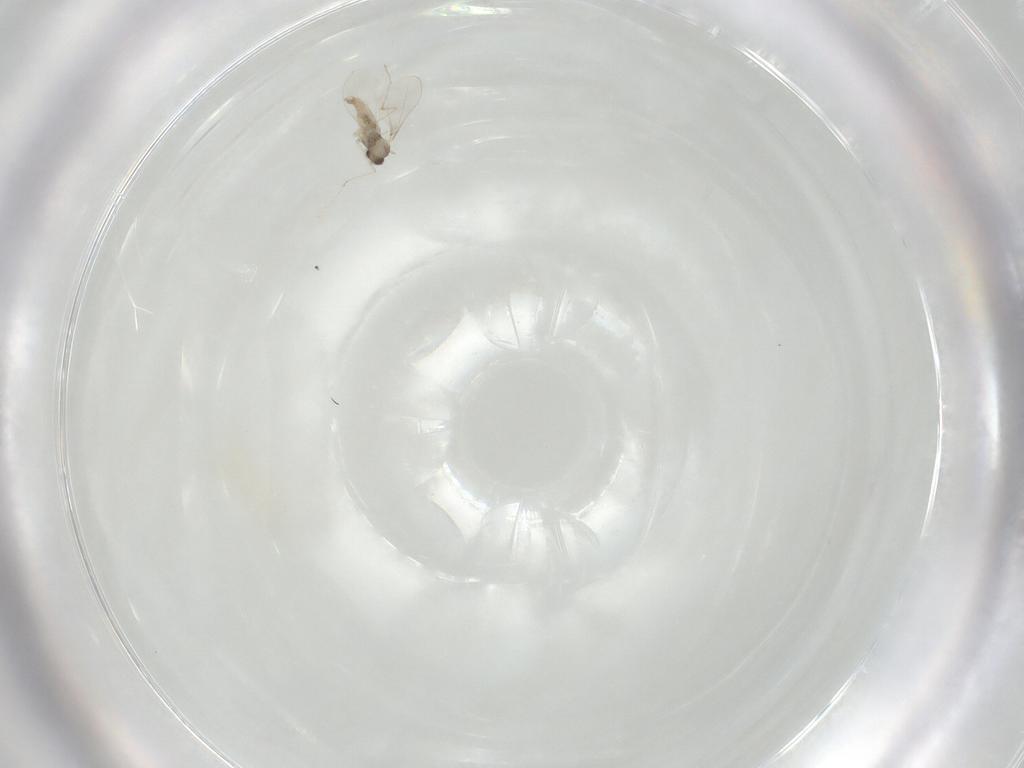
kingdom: Animalia
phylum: Arthropoda
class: Insecta
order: Diptera
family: Cecidomyiidae
